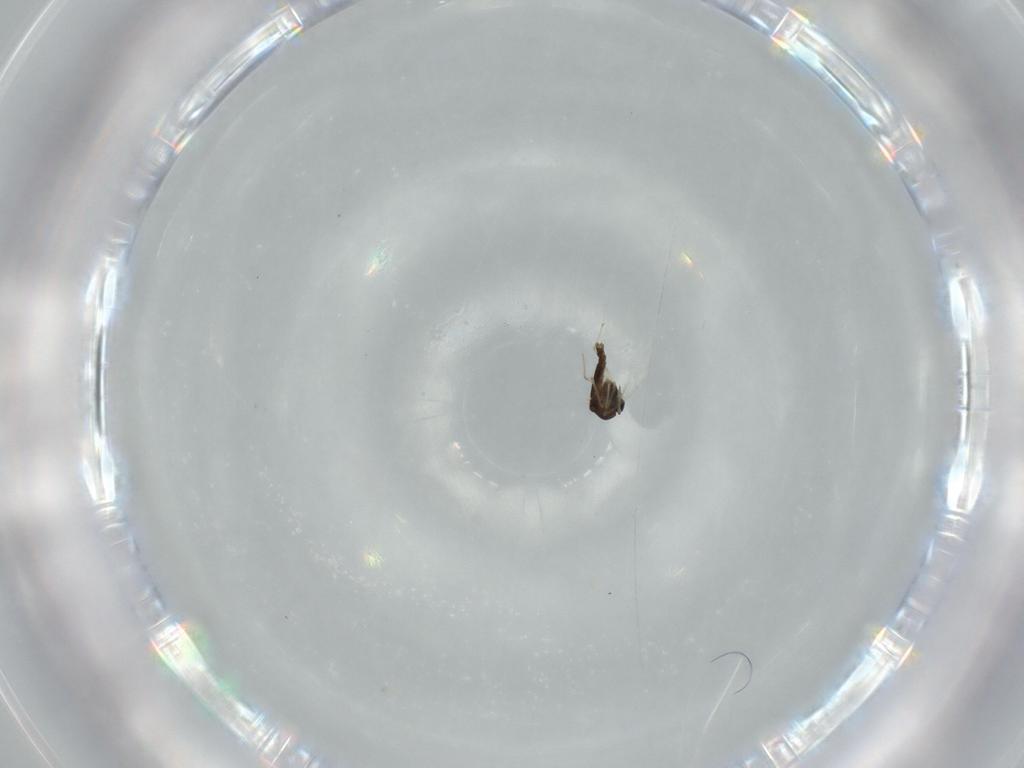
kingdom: Animalia
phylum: Arthropoda
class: Insecta
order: Diptera
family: Chironomidae
